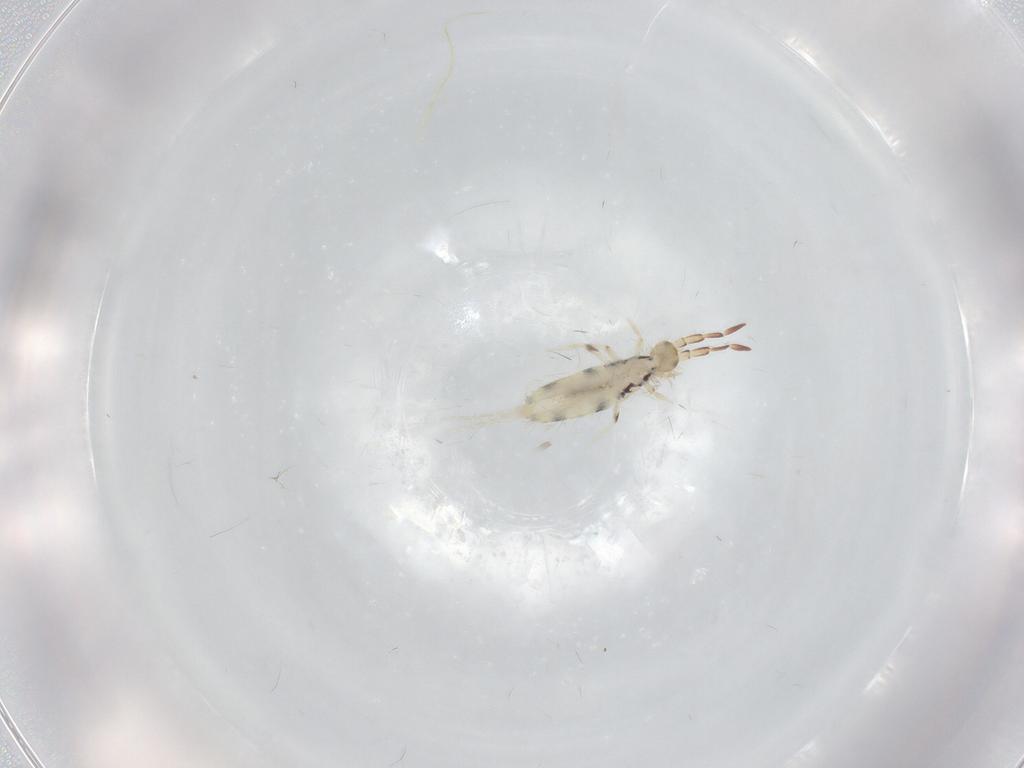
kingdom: Animalia
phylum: Arthropoda
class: Collembola
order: Entomobryomorpha
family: Entomobryidae
